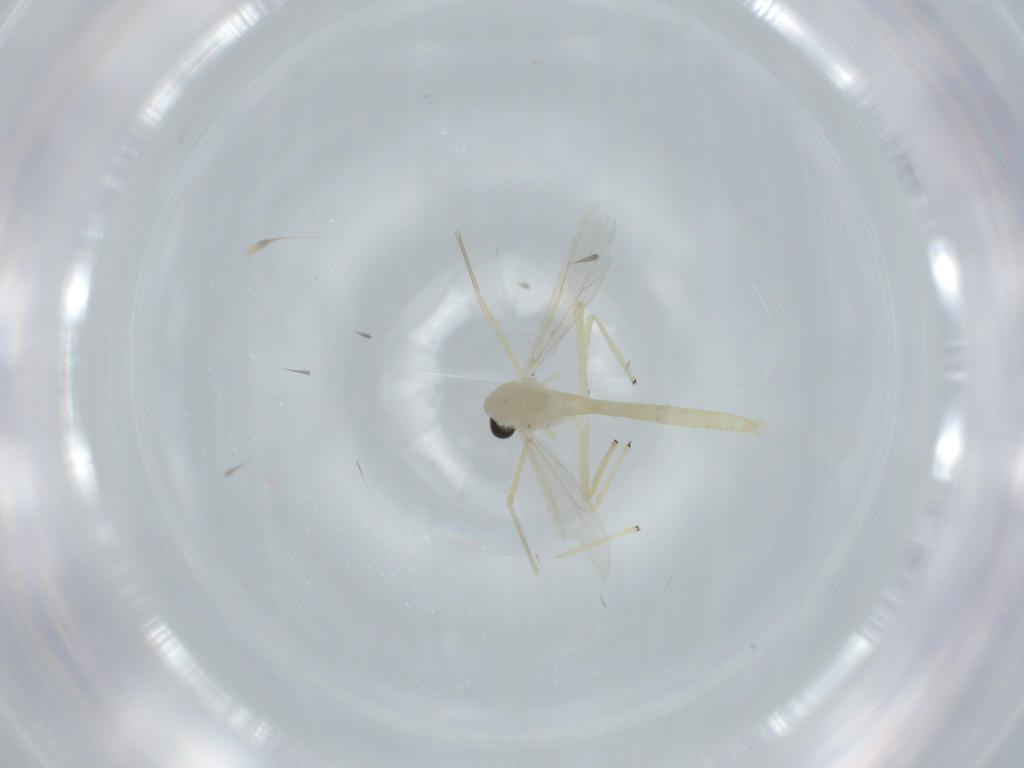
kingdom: Animalia
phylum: Arthropoda
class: Insecta
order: Diptera
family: Chironomidae
